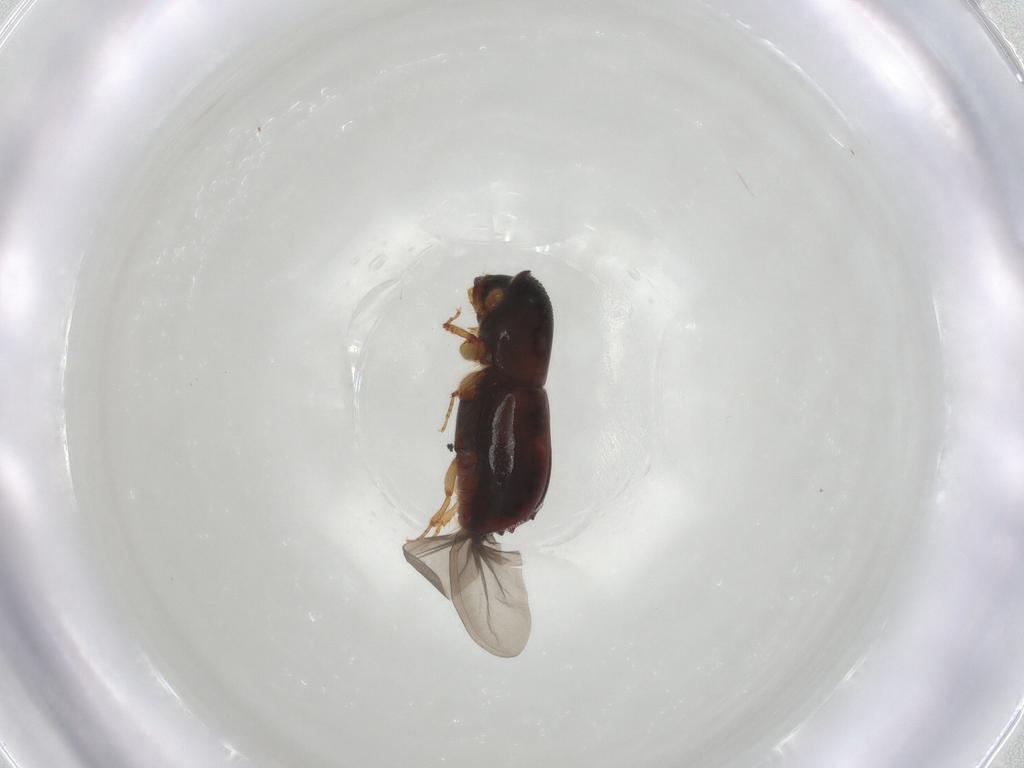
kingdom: Animalia
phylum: Arthropoda
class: Insecta
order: Coleoptera
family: Curculionidae
